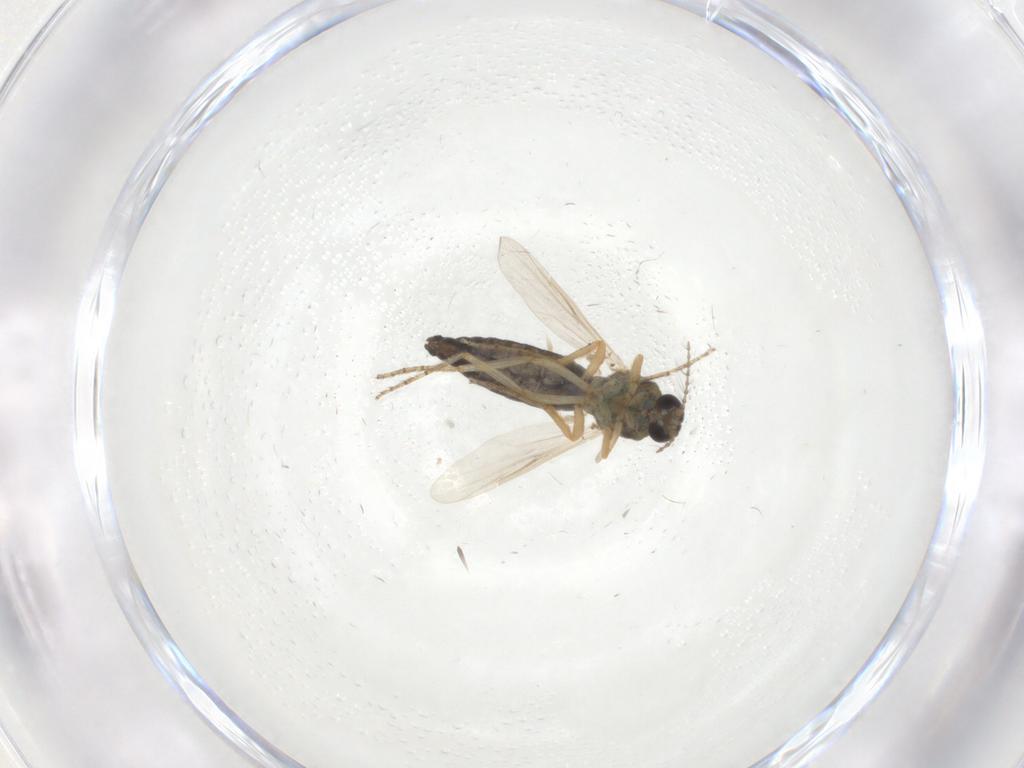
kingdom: Animalia
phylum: Arthropoda
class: Insecta
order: Diptera
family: Ceratopogonidae
